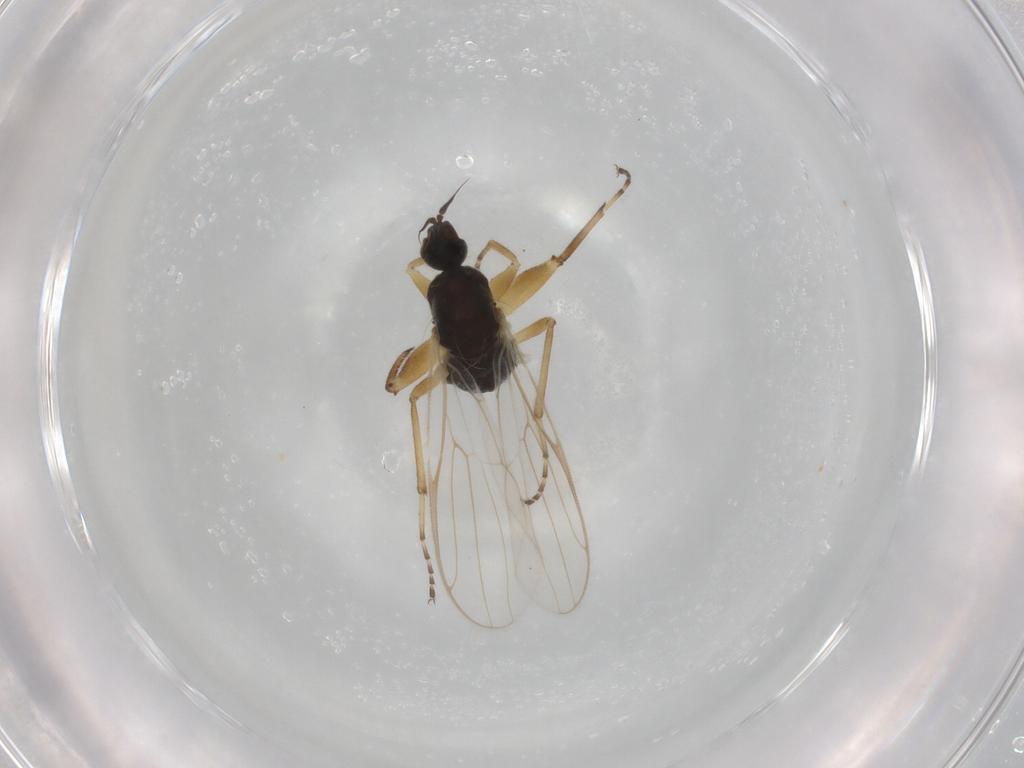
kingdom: Animalia
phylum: Arthropoda
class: Insecta
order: Diptera
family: Hybotidae
